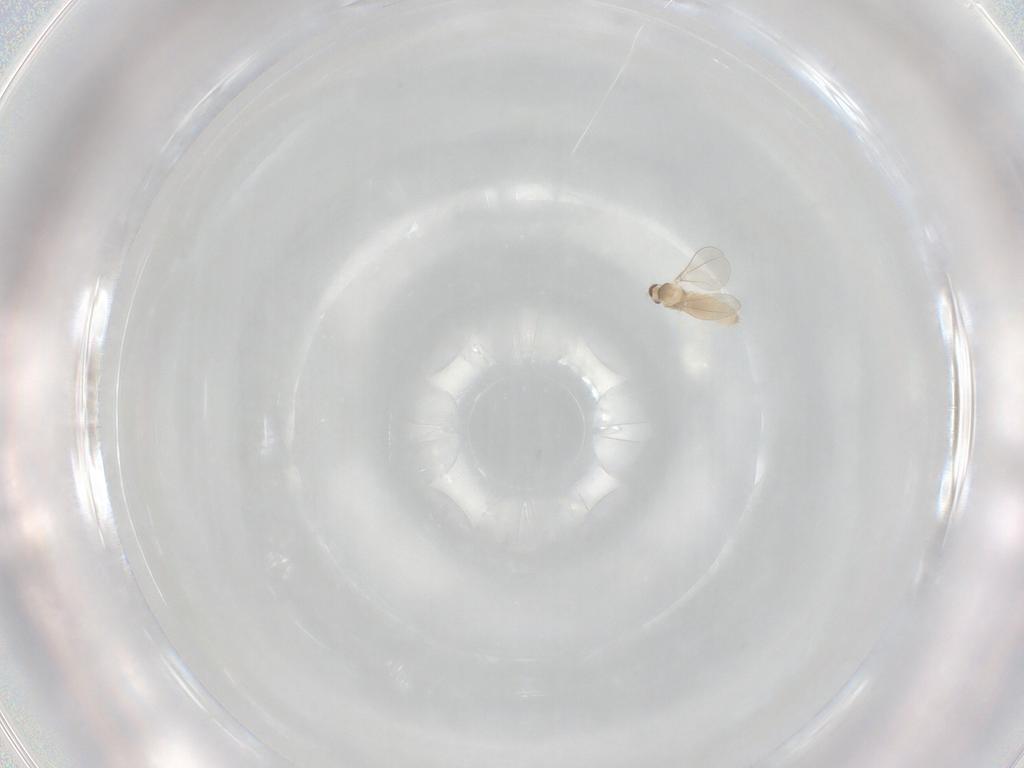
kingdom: Animalia
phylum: Arthropoda
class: Insecta
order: Diptera
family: Cecidomyiidae
